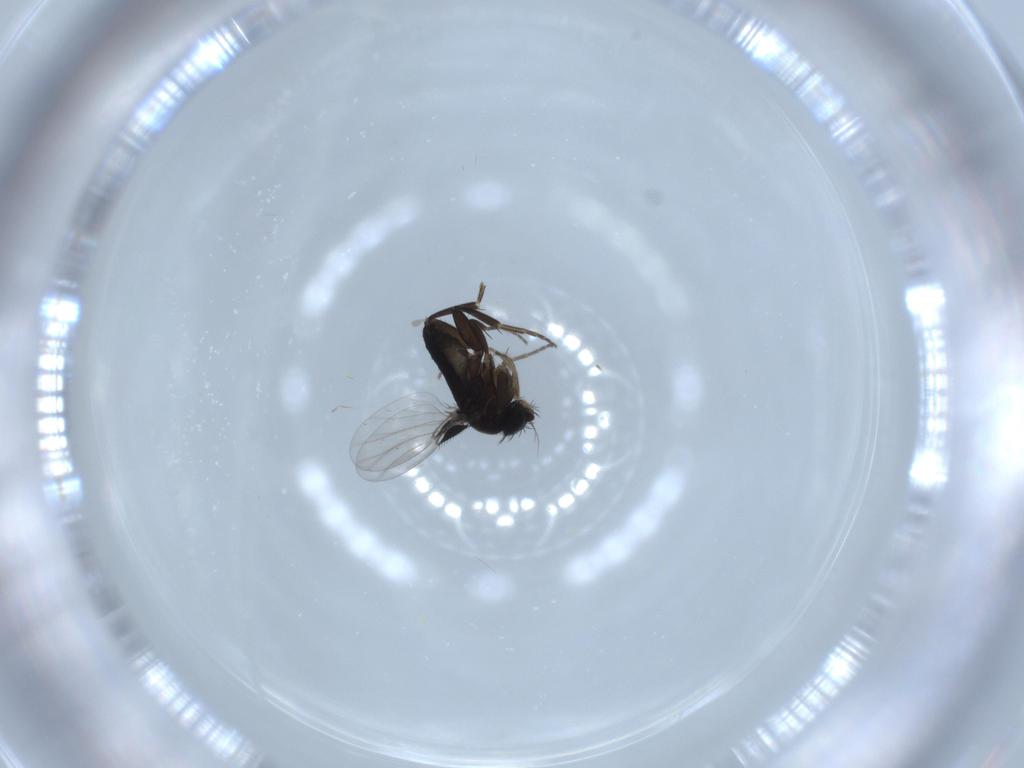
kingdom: Animalia
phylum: Arthropoda
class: Insecta
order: Diptera
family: Phoridae
